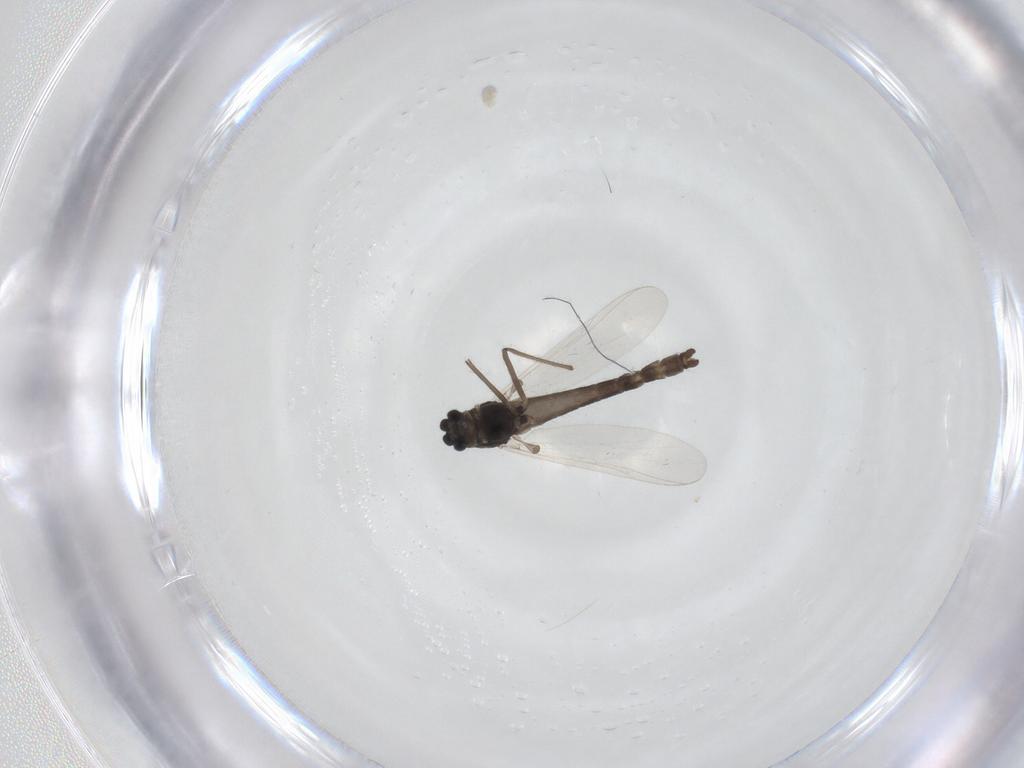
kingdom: Animalia
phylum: Arthropoda
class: Insecta
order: Diptera
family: Chironomidae
